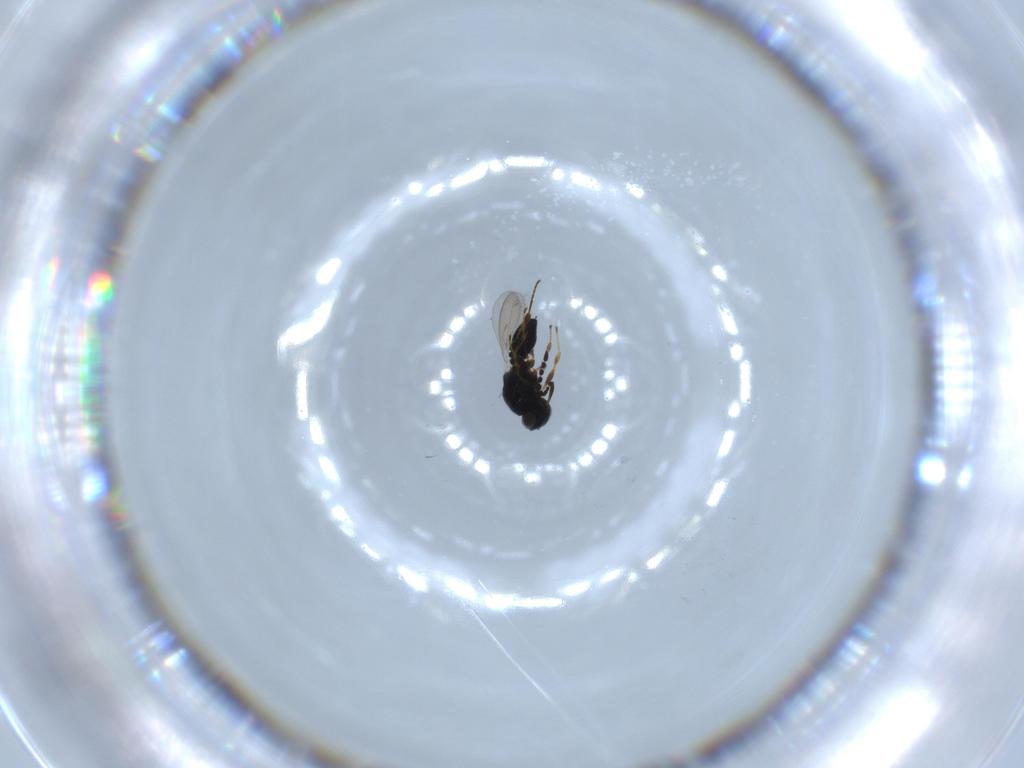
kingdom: Animalia
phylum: Arthropoda
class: Insecta
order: Hymenoptera
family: Platygastridae
